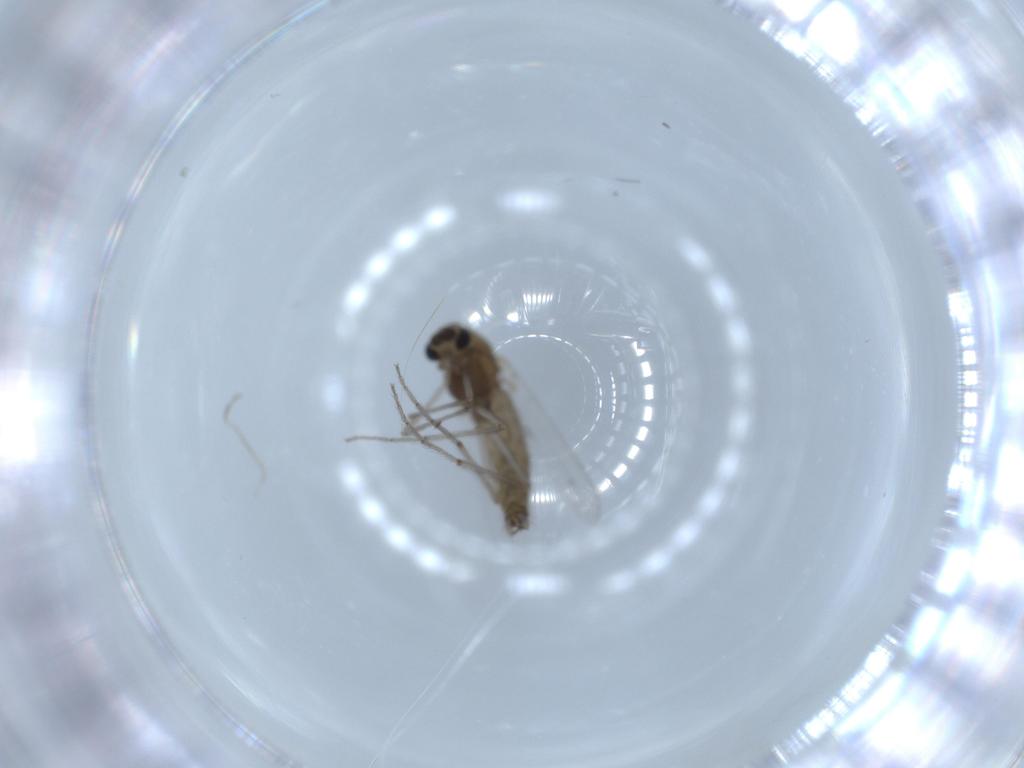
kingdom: Animalia
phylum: Arthropoda
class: Insecta
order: Diptera
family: Chironomidae
